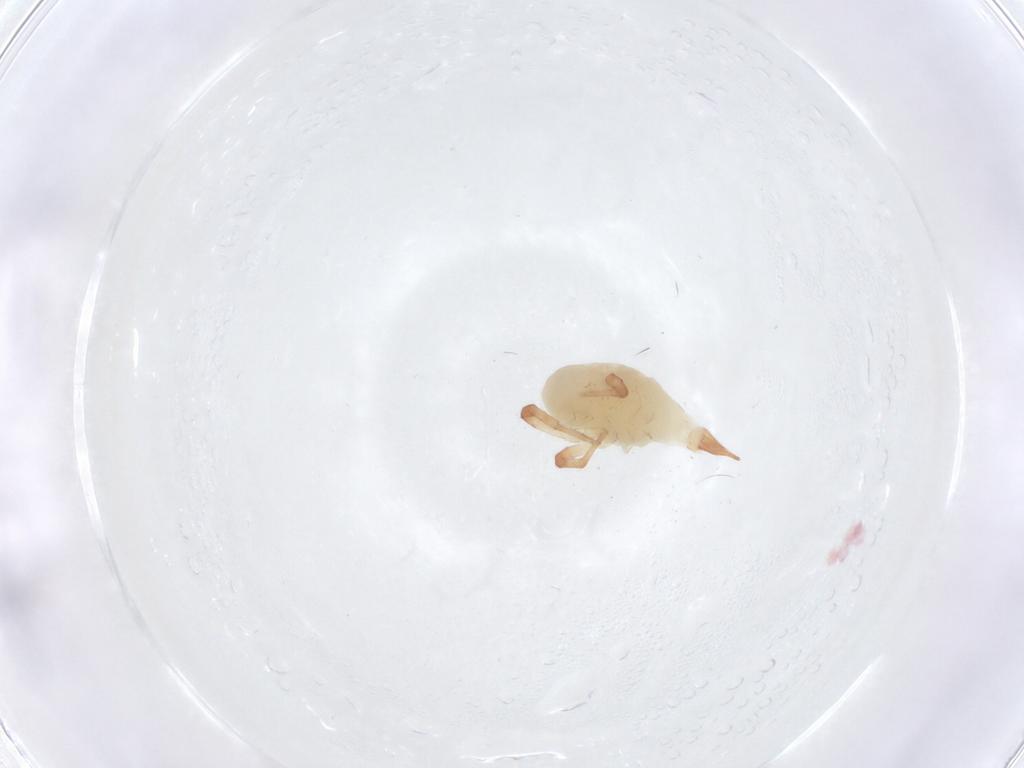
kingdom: Animalia
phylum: Arthropoda
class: Arachnida
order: Trombidiformes
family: Bdellidae
